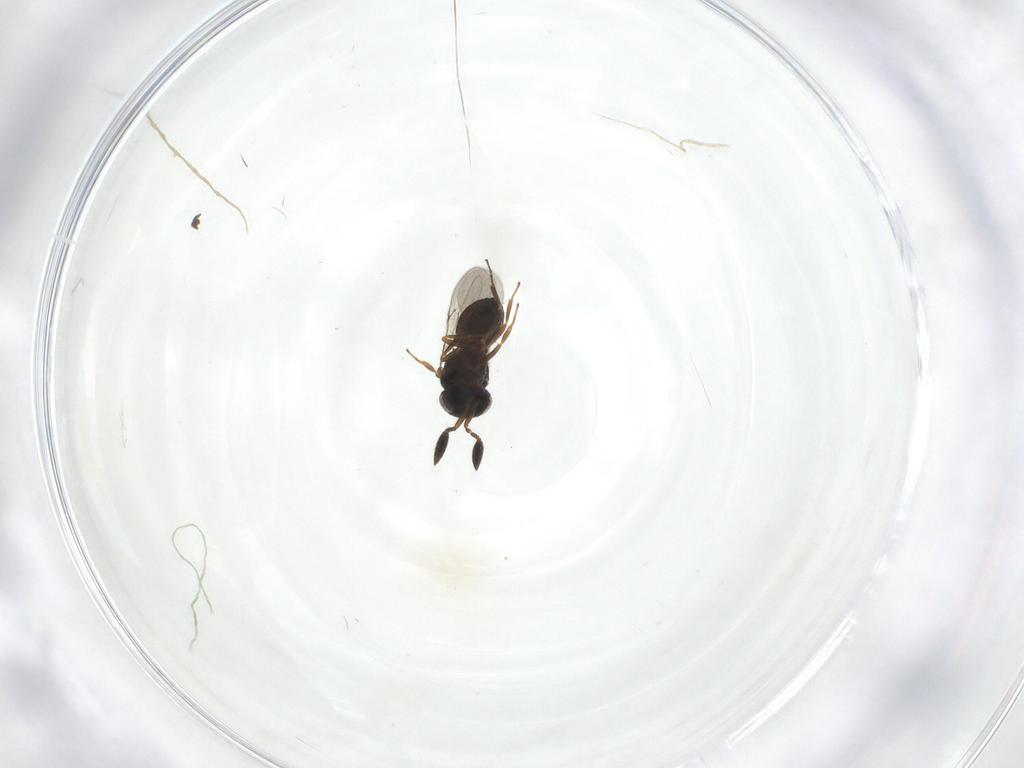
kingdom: Animalia
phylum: Arthropoda
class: Insecta
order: Hymenoptera
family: Scelionidae
